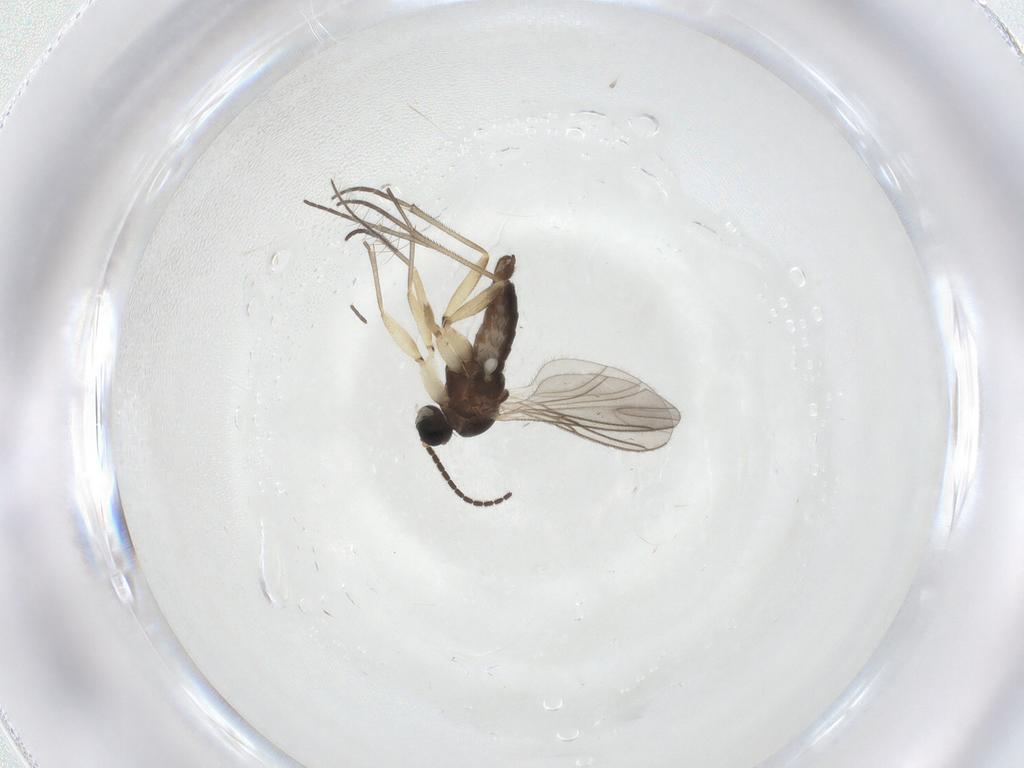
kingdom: Animalia
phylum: Arthropoda
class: Insecta
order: Diptera
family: Sciaridae
